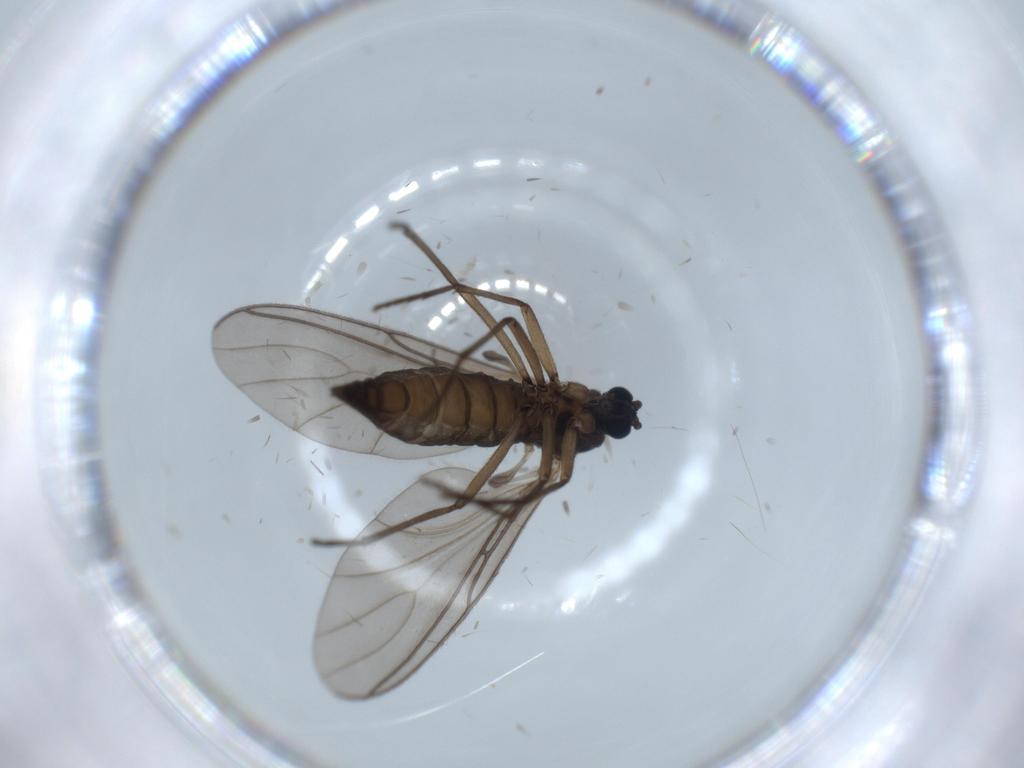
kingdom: Animalia
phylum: Arthropoda
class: Insecta
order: Diptera
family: Sciaridae
